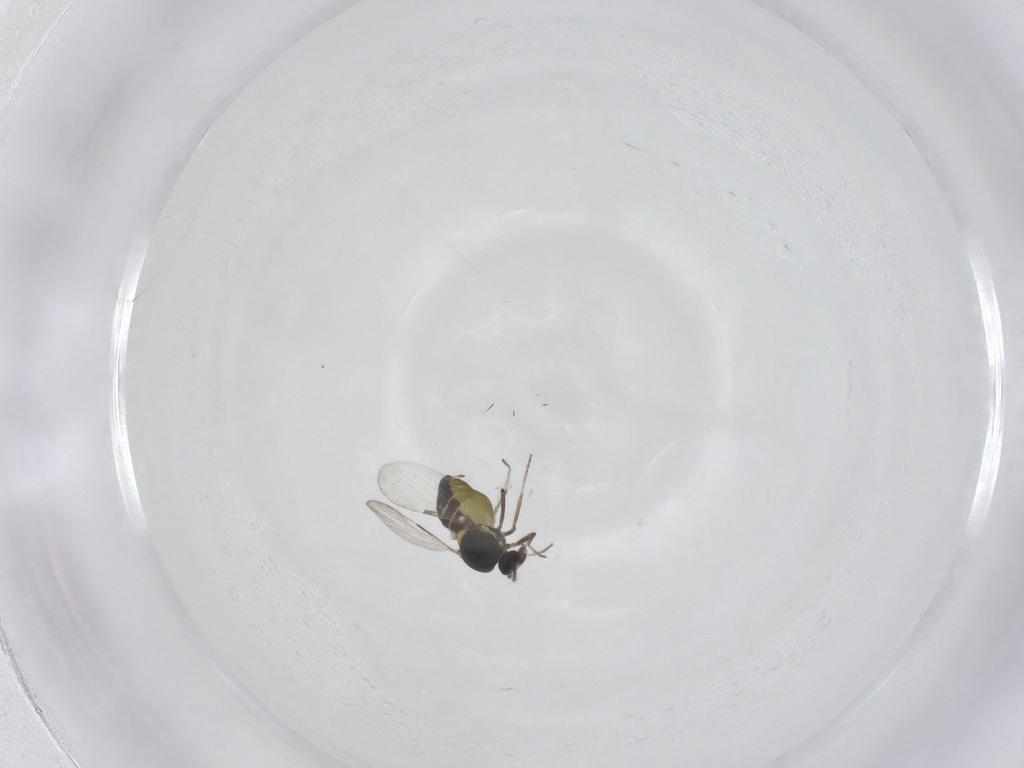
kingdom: Animalia
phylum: Arthropoda
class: Insecta
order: Diptera
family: Ceratopogonidae
